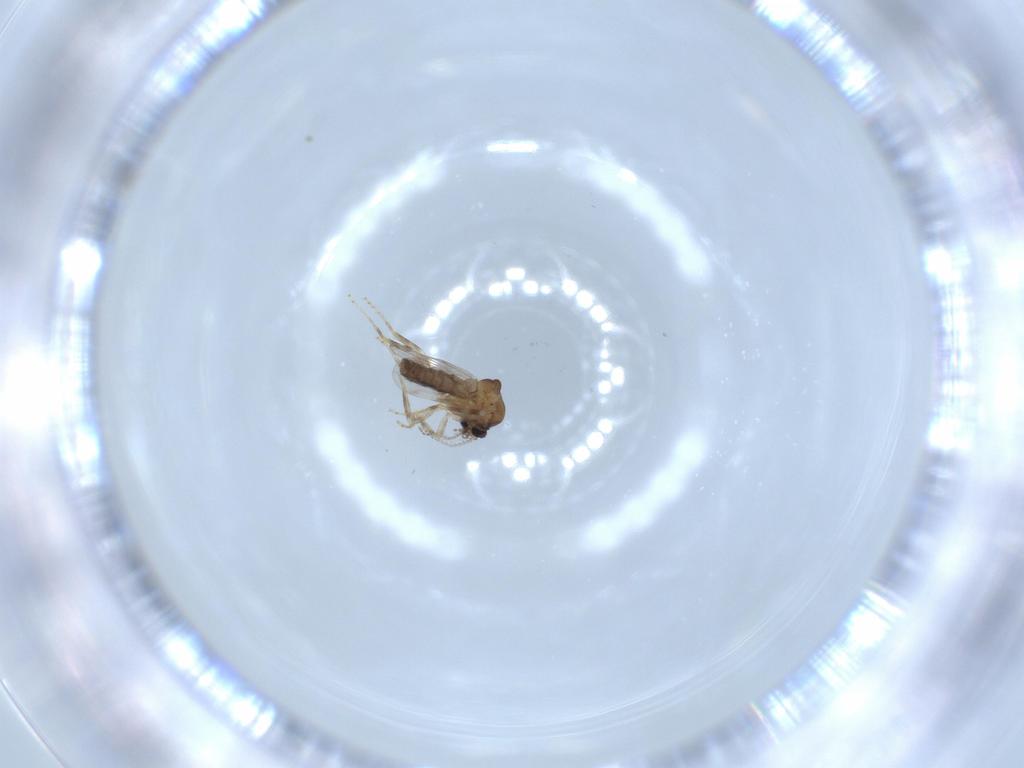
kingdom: Animalia
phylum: Arthropoda
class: Insecta
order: Diptera
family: Ceratopogonidae
